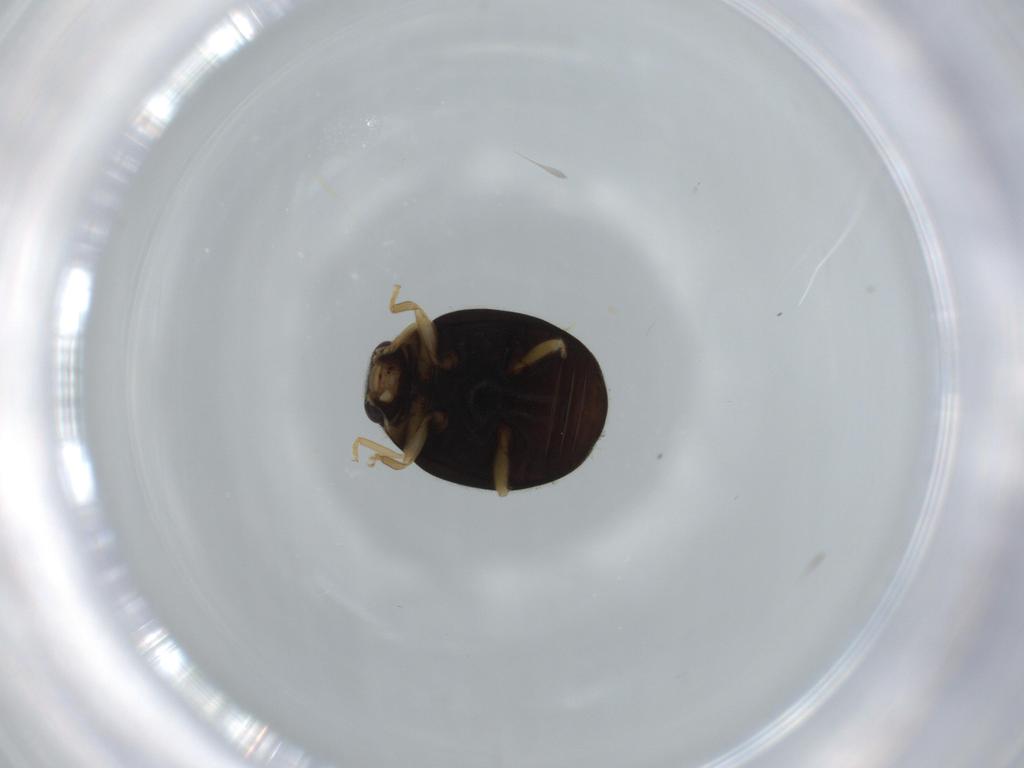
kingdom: Animalia
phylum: Arthropoda
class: Insecta
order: Coleoptera
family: Coccinellidae
